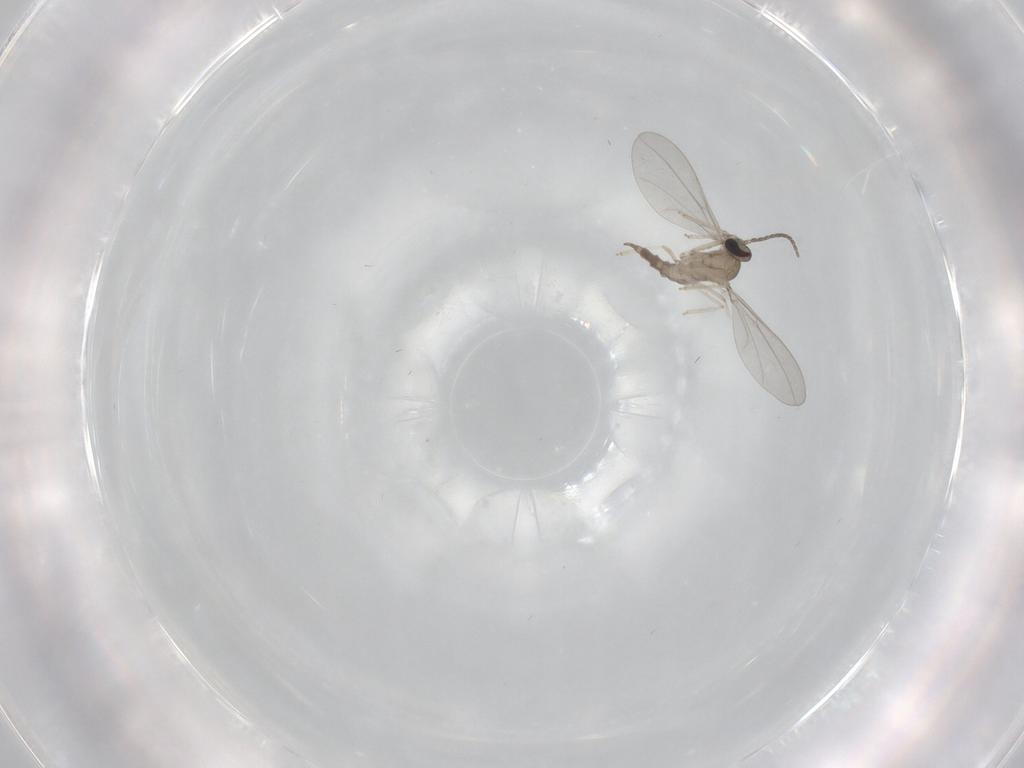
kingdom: Animalia
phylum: Arthropoda
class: Insecta
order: Diptera
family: Cecidomyiidae
